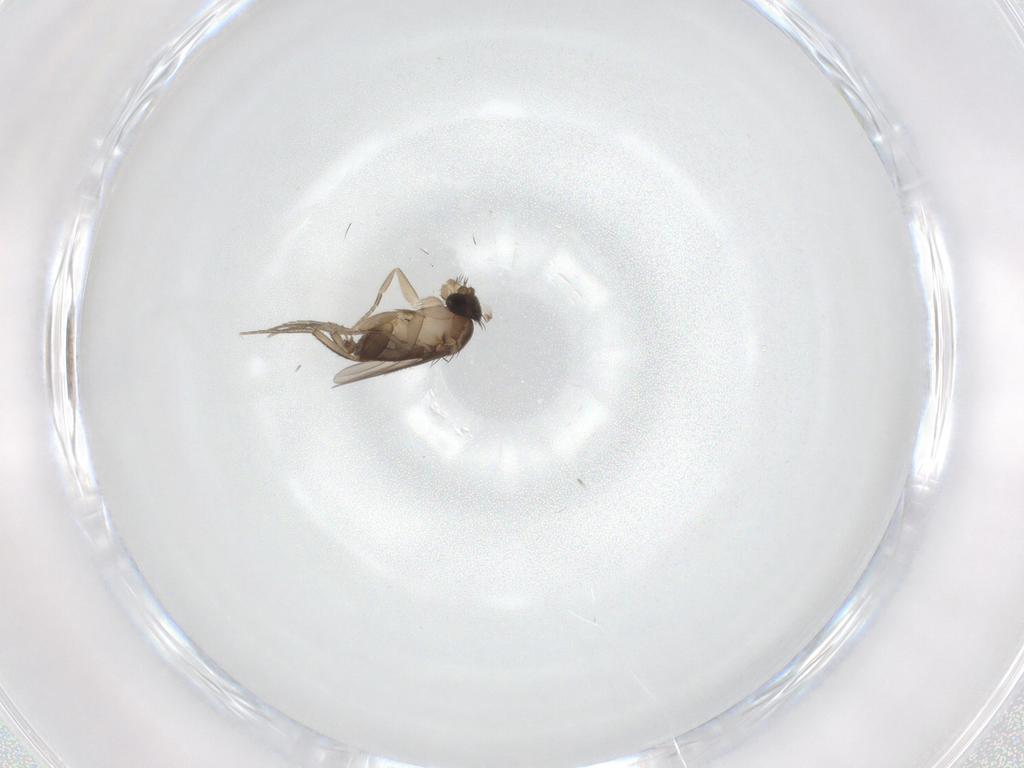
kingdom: Animalia
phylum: Arthropoda
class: Insecta
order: Diptera
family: Phoridae
